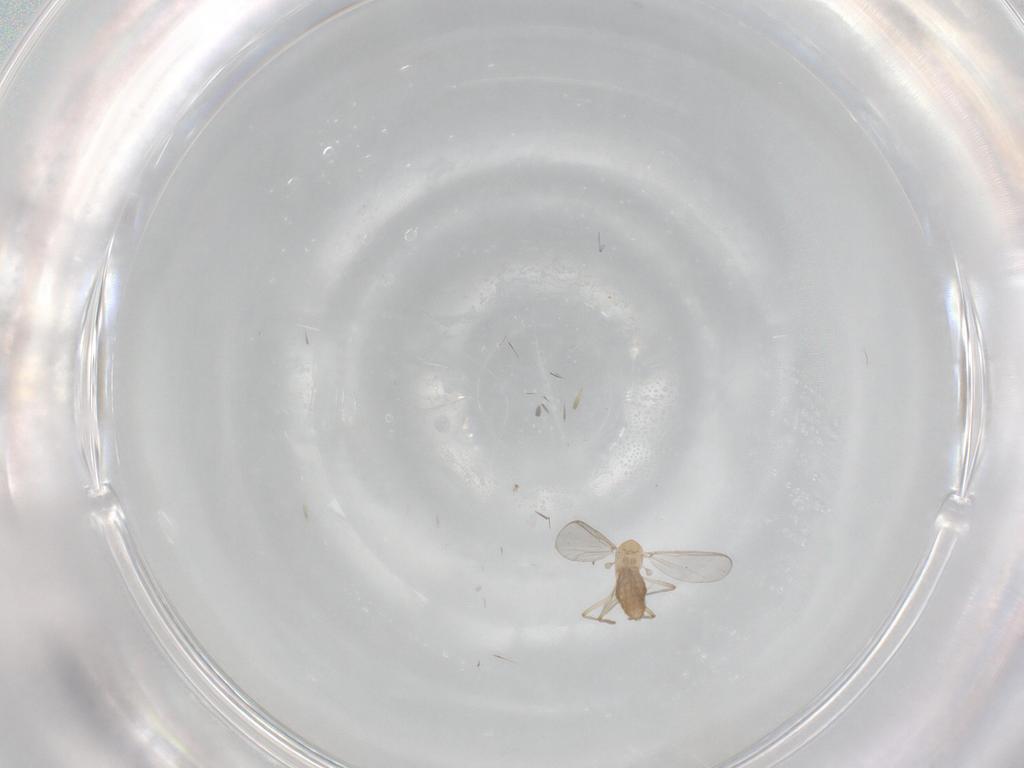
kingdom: Animalia
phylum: Arthropoda
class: Insecta
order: Diptera
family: Chironomidae
